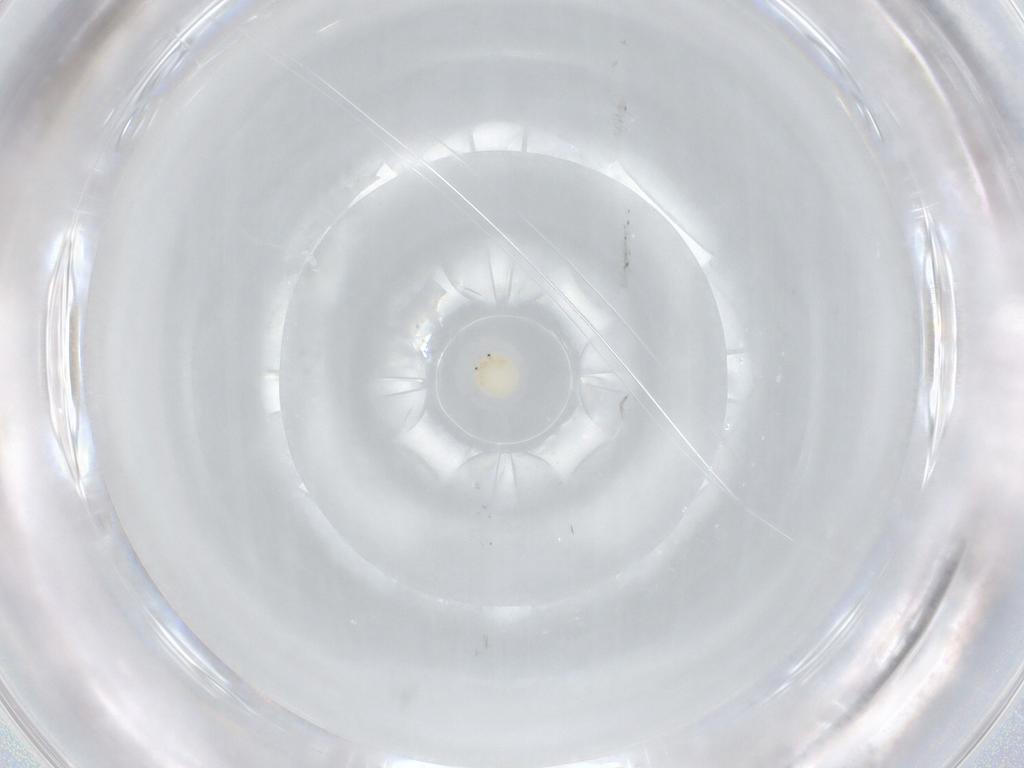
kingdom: Animalia
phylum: Arthropoda
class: Arachnida
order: Trombidiformes
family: Arrenuridae
